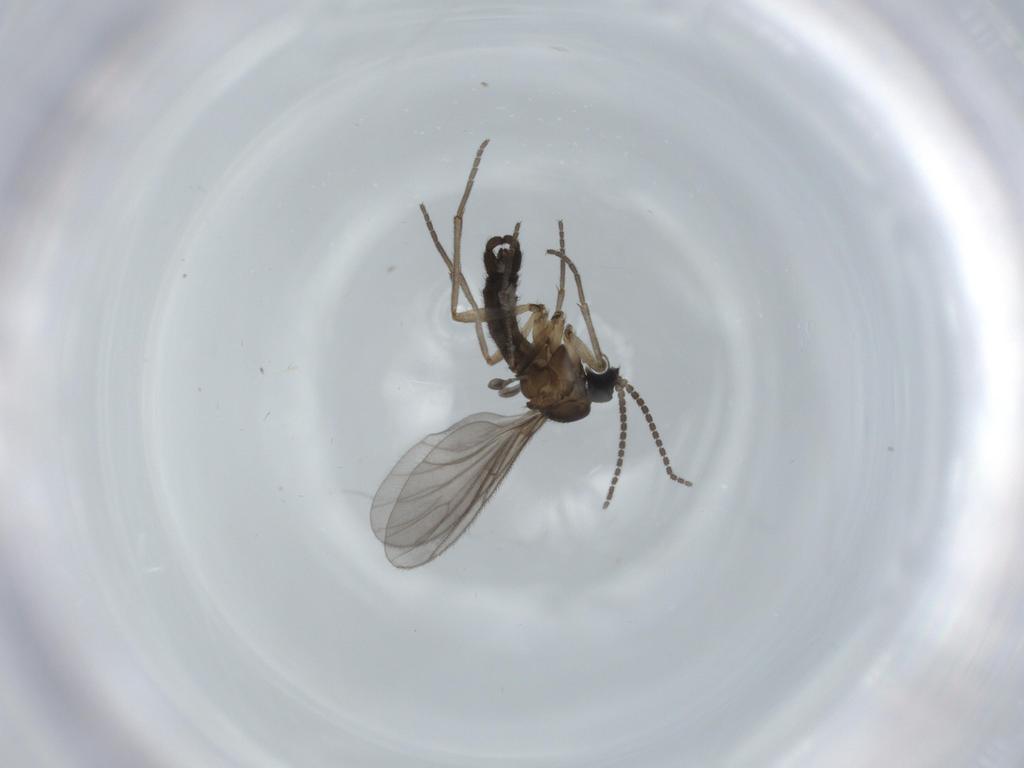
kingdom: Animalia
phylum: Arthropoda
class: Insecta
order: Diptera
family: Sciaridae
